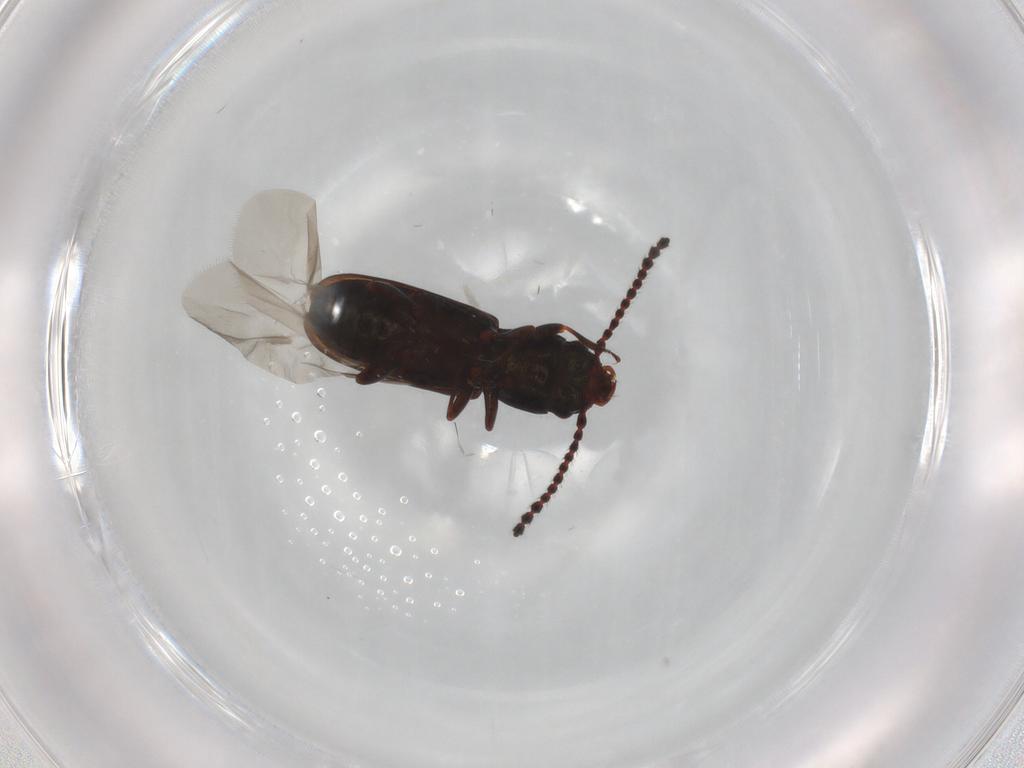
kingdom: Animalia
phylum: Arthropoda
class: Insecta
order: Coleoptera
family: Laemophloeidae
